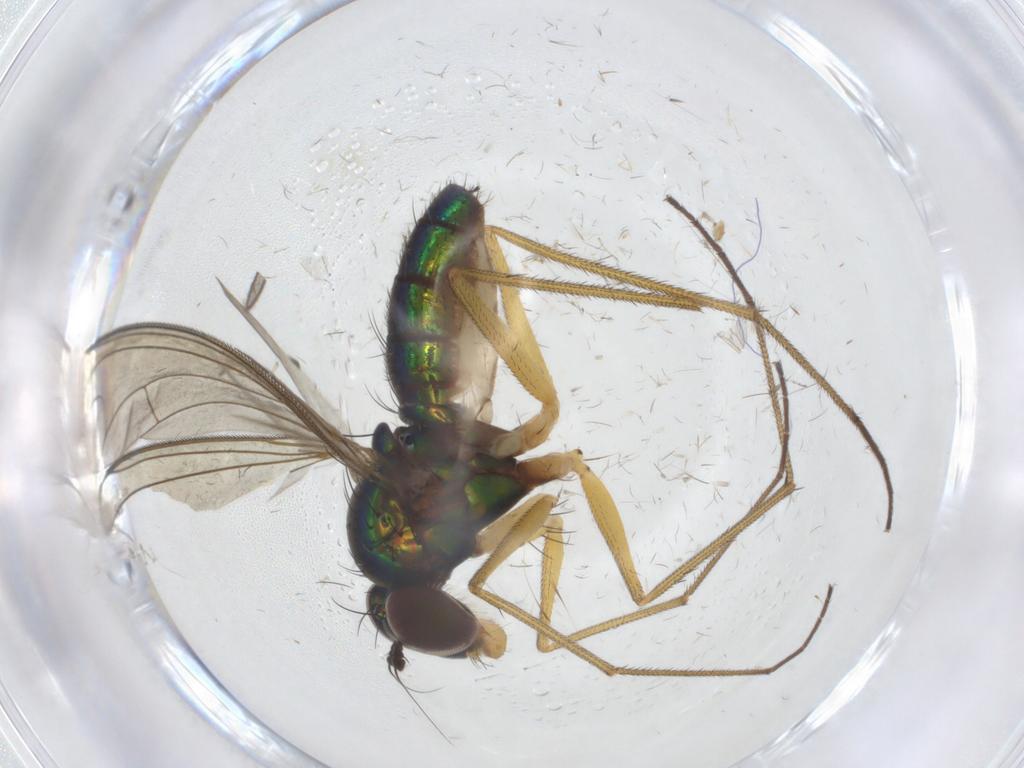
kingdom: Animalia
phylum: Arthropoda
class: Insecta
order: Diptera
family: Dolichopodidae
